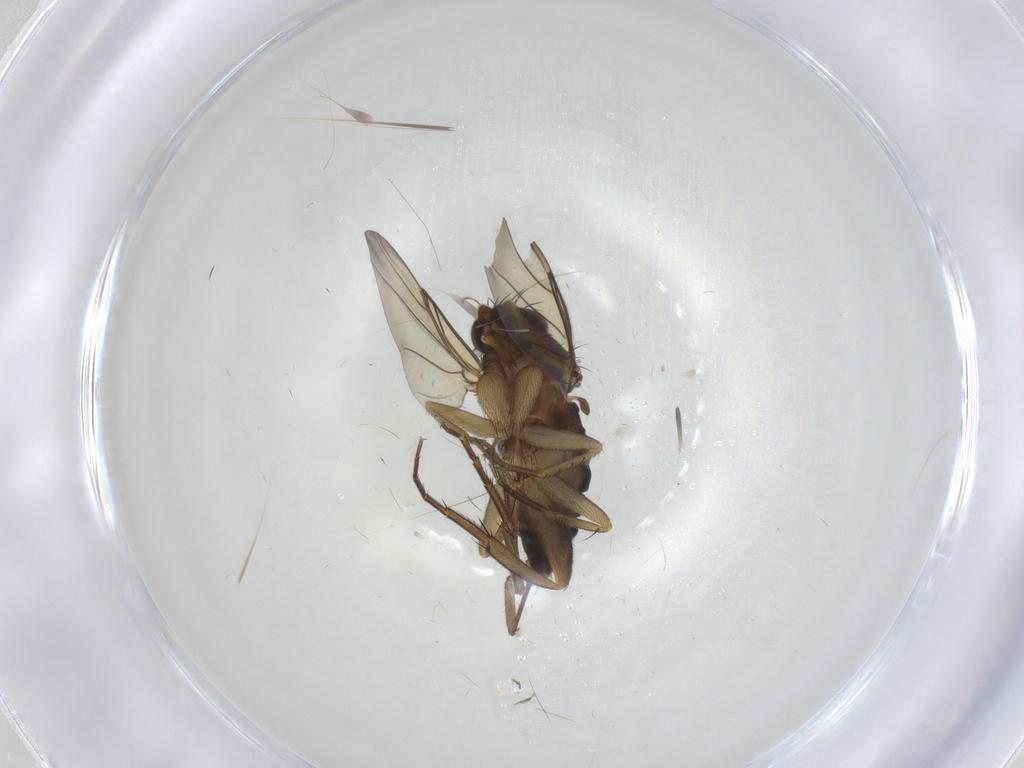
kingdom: Animalia
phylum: Arthropoda
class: Insecta
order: Diptera
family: Phoridae
